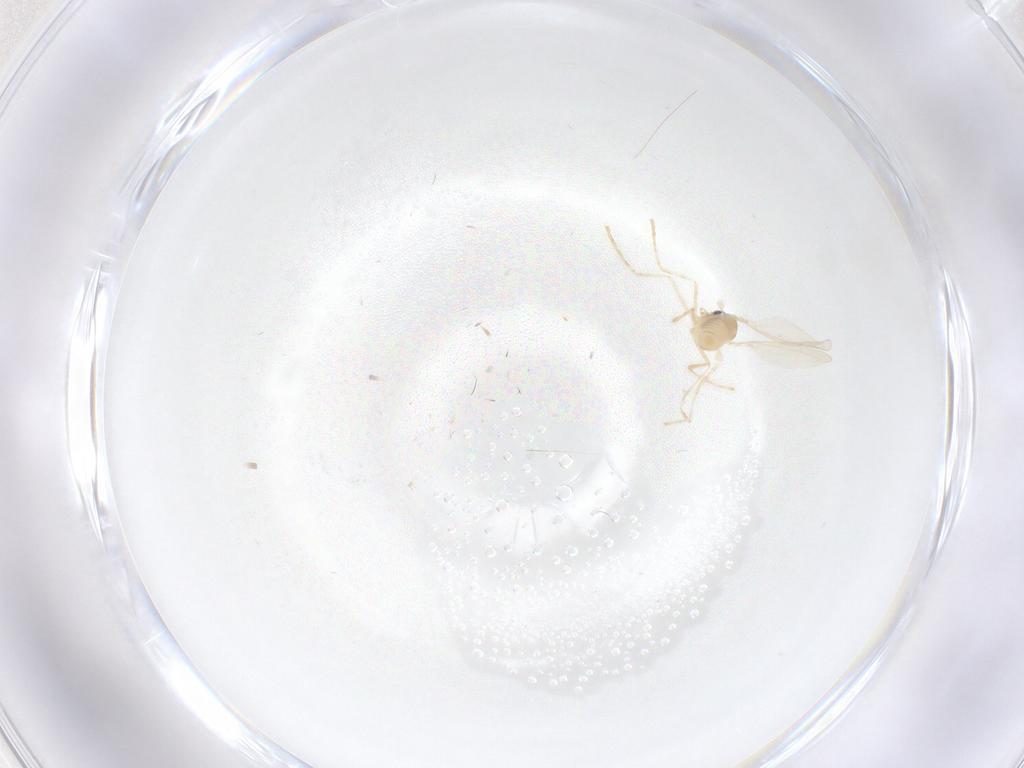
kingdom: Animalia
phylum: Arthropoda
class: Insecta
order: Diptera
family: Cecidomyiidae
